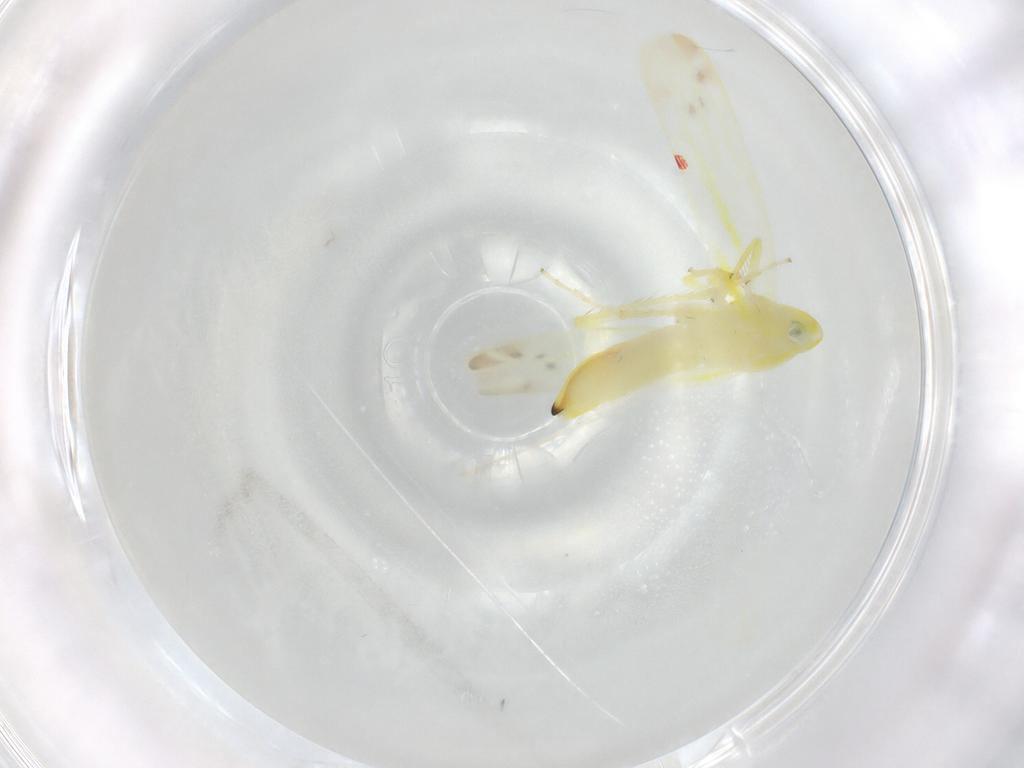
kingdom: Animalia
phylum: Arthropoda
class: Insecta
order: Hemiptera
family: Cicadellidae
